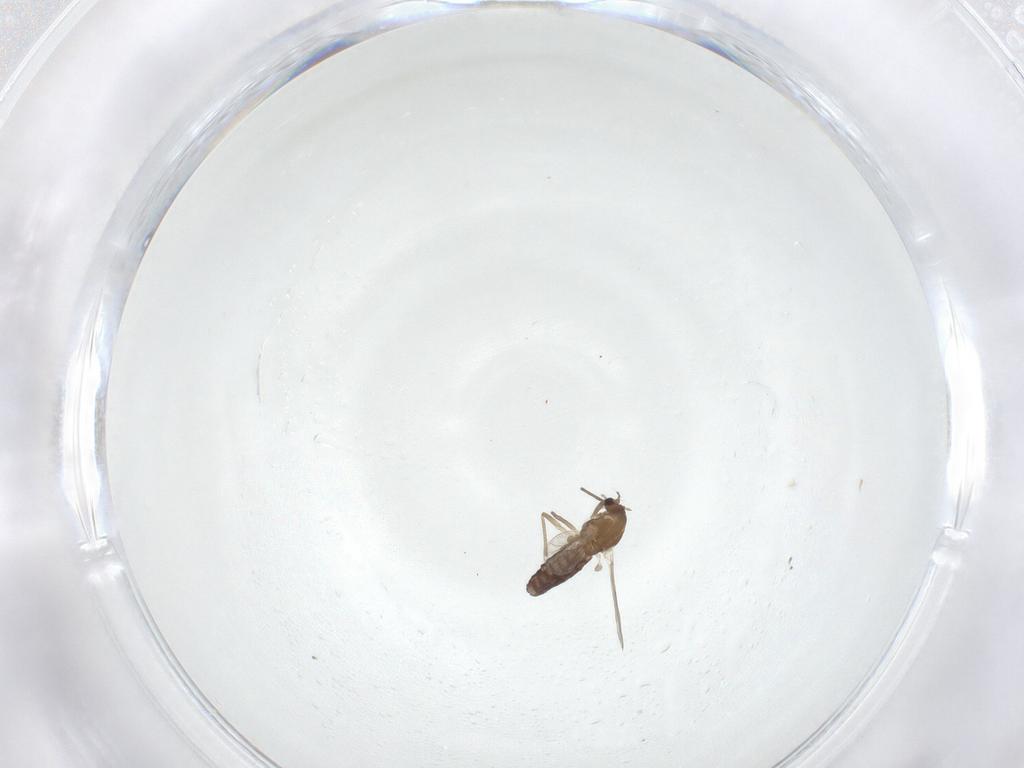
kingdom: Animalia
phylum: Arthropoda
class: Insecta
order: Diptera
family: Chironomidae
